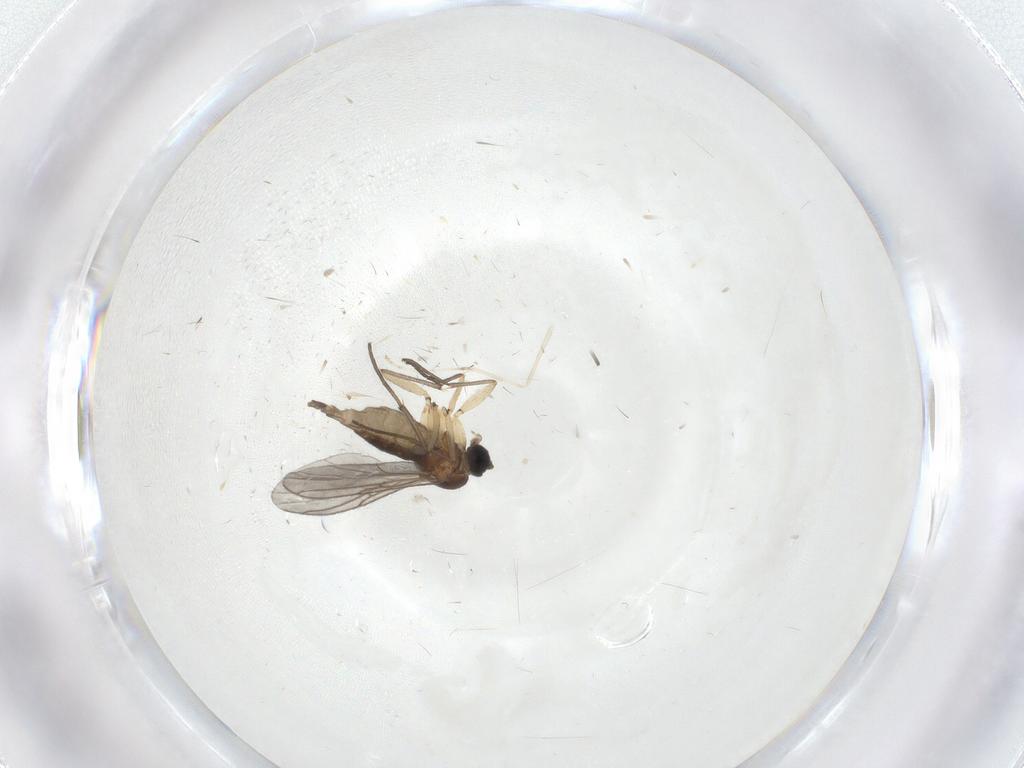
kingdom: Animalia
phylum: Arthropoda
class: Insecta
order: Diptera
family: Sciaridae
